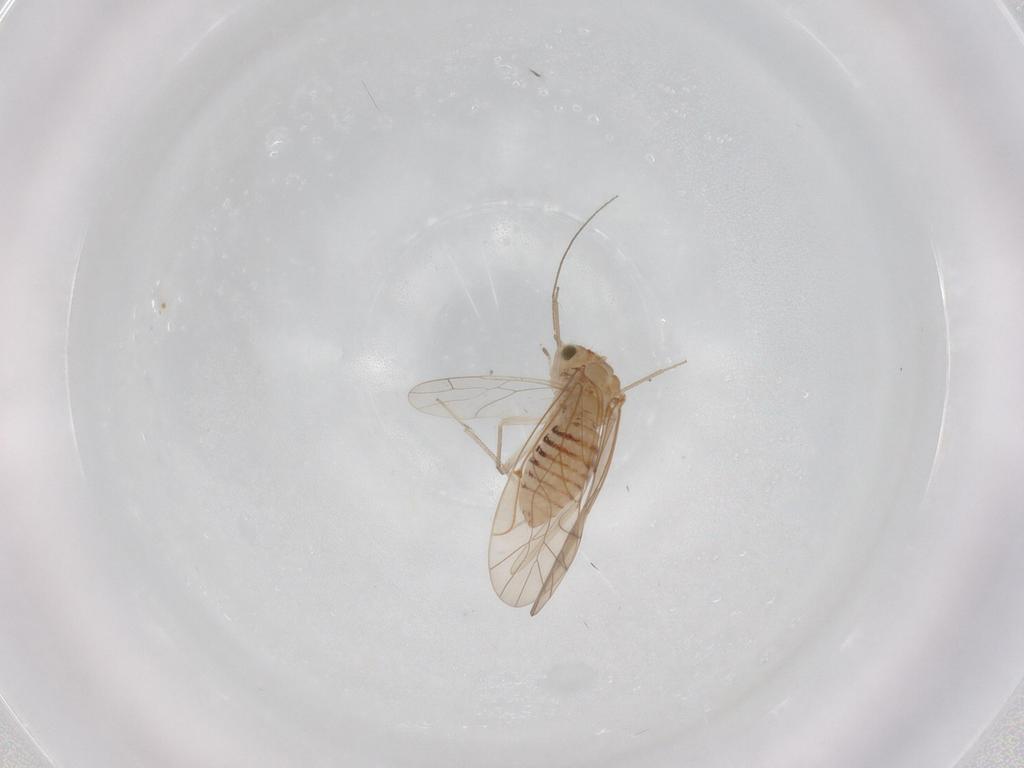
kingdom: Animalia
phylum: Arthropoda
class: Insecta
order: Psocodea
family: Lachesillidae
